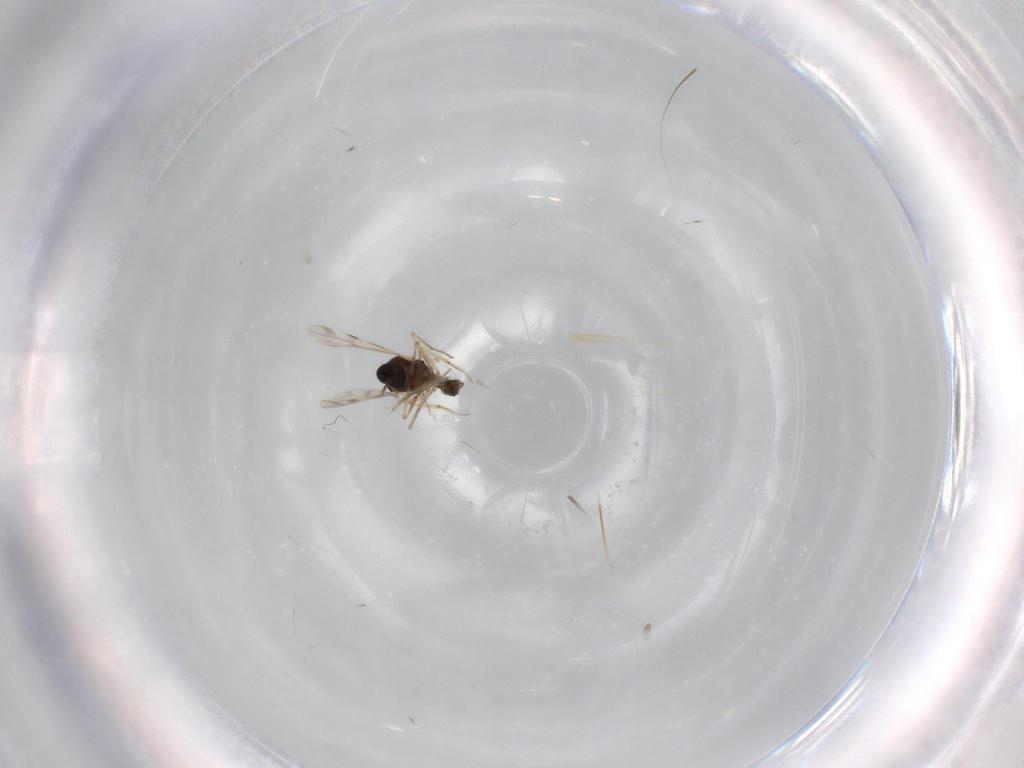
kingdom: Animalia
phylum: Arthropoda
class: Insecta
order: Diptera
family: Ceratopogonidae
